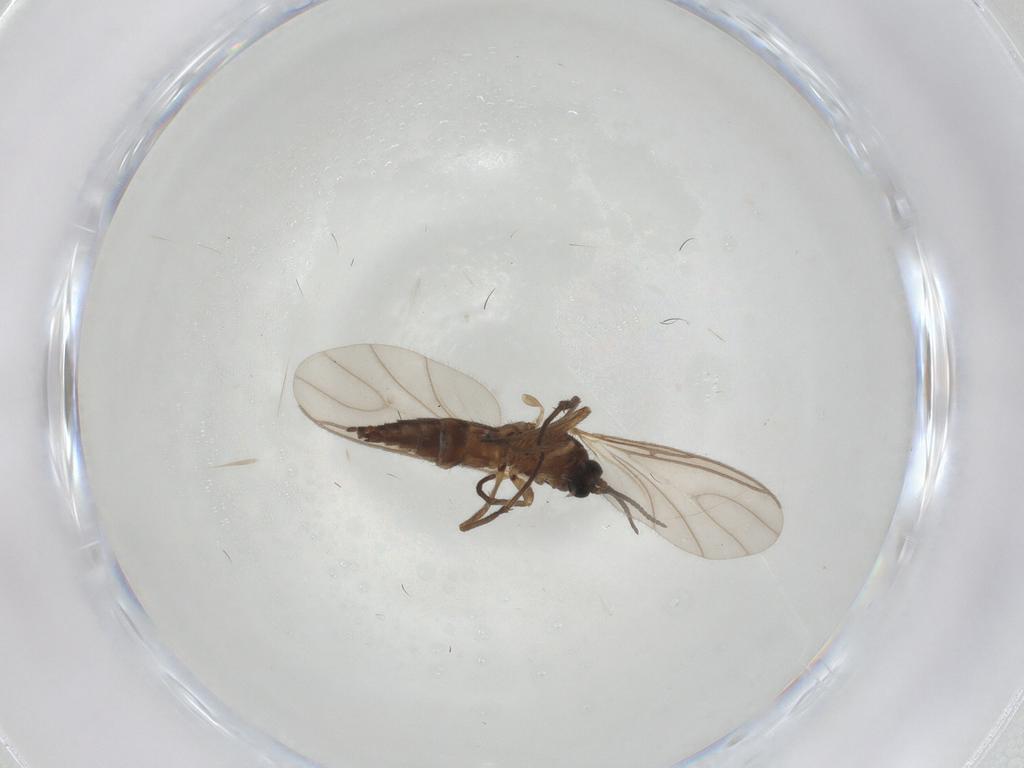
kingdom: Animalia
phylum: Arthropoda
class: Insecta
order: Diptera
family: Sciaridae
